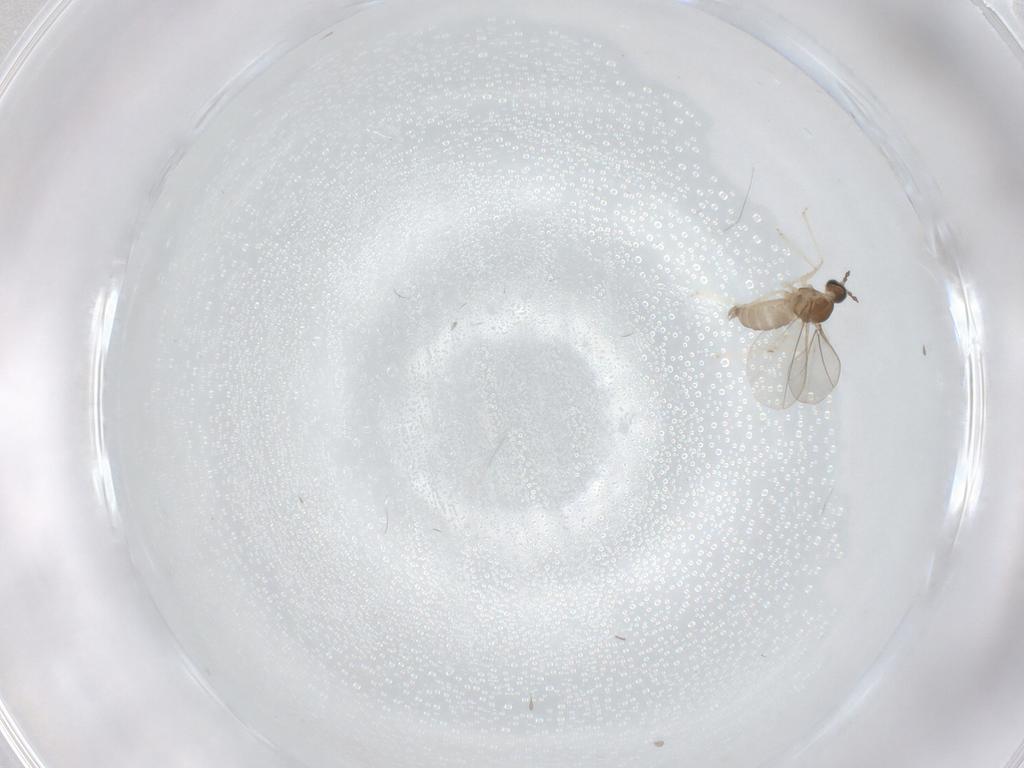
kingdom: Animalia
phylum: Arthropoda
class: Insecta
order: Diptera
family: Cecidomyiidae
